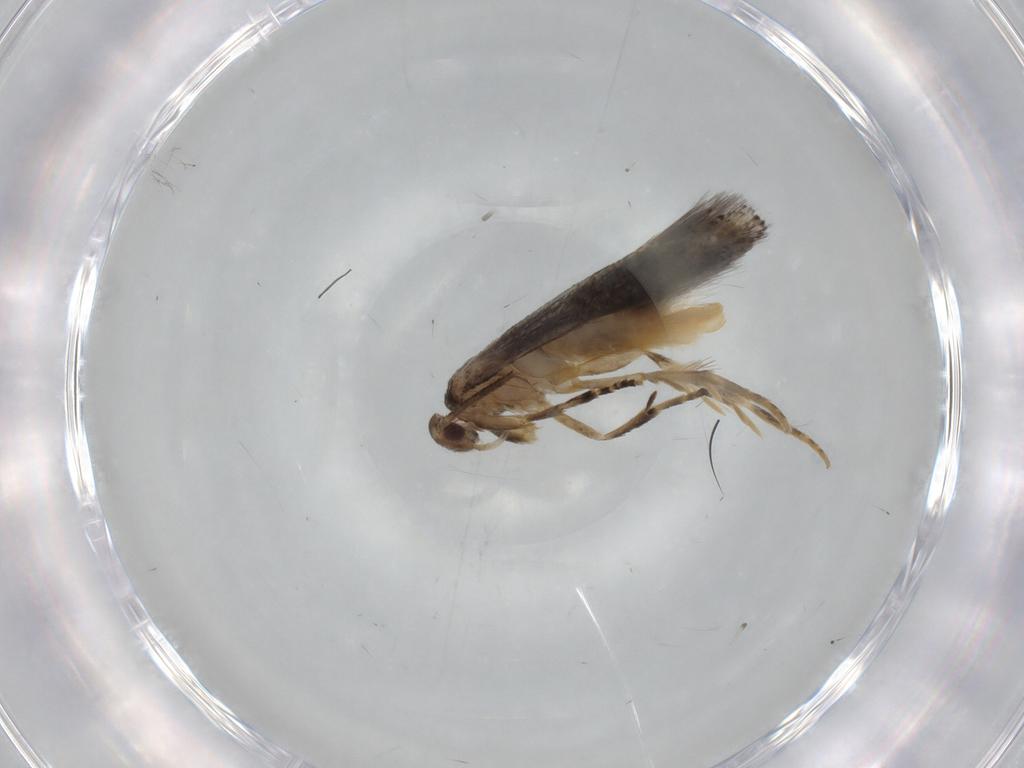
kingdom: Animalia
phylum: Arthropoda
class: Insecta
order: Lepidoptera
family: Elachistidae
